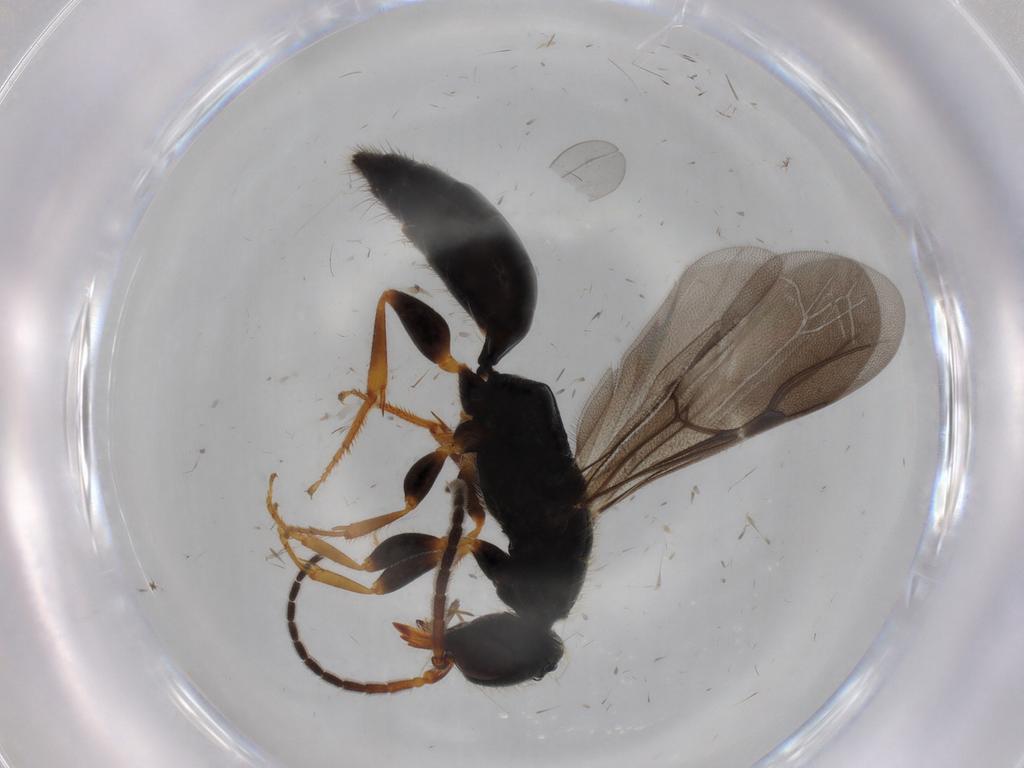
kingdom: Animalia
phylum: Arthropoda
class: Insecta
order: Hymenoptera
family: Bethylidae
